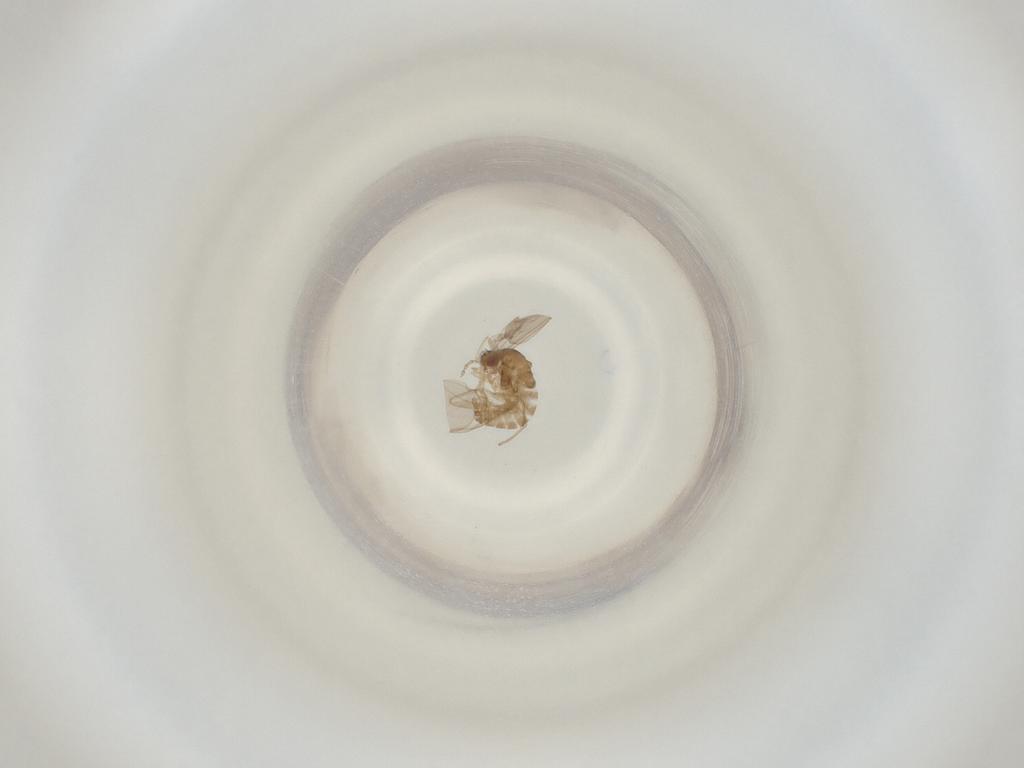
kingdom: Animalia
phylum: Arthropoda
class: Insecta
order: Diptera
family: Cecidomyiidae
